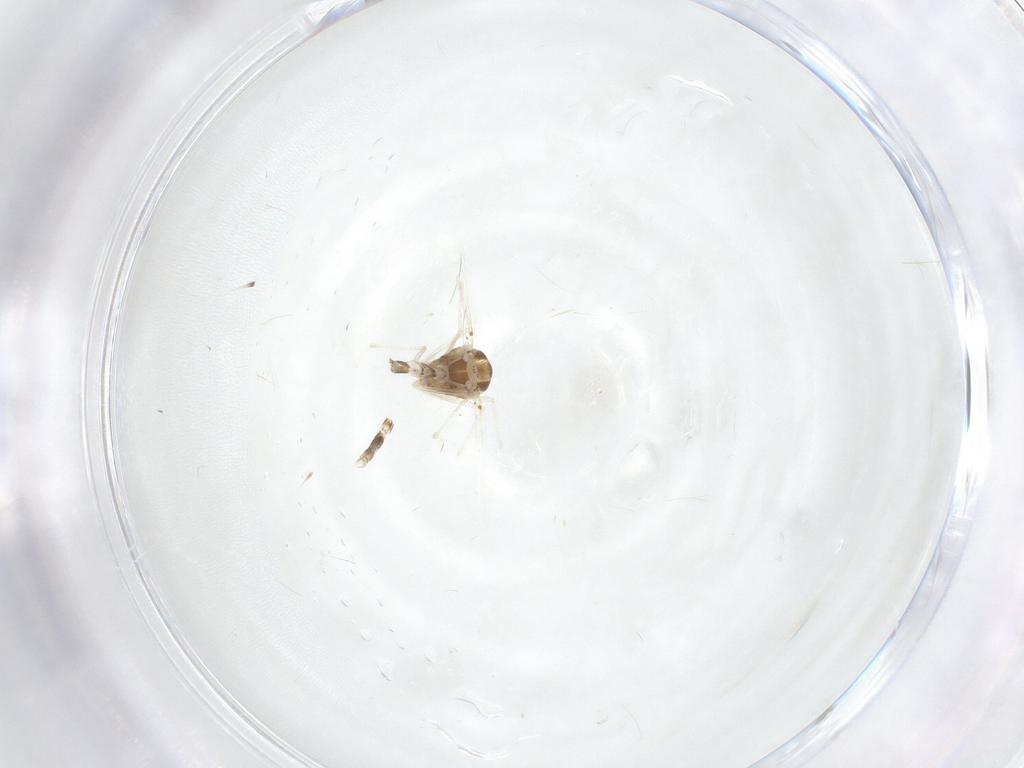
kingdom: Animalia
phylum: Arthropoda
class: Insecta
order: Diptera
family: Chironomidae
